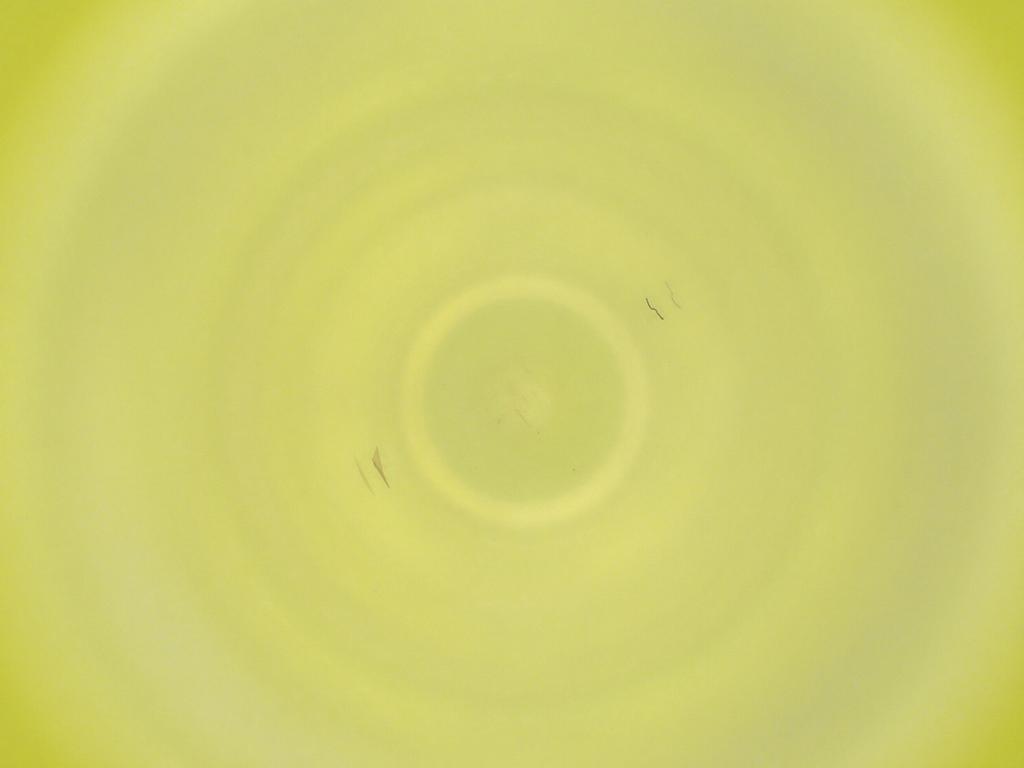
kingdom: Animalia
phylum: Arthropoda
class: Insecta
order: Diptera
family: Cecidomyiidae
